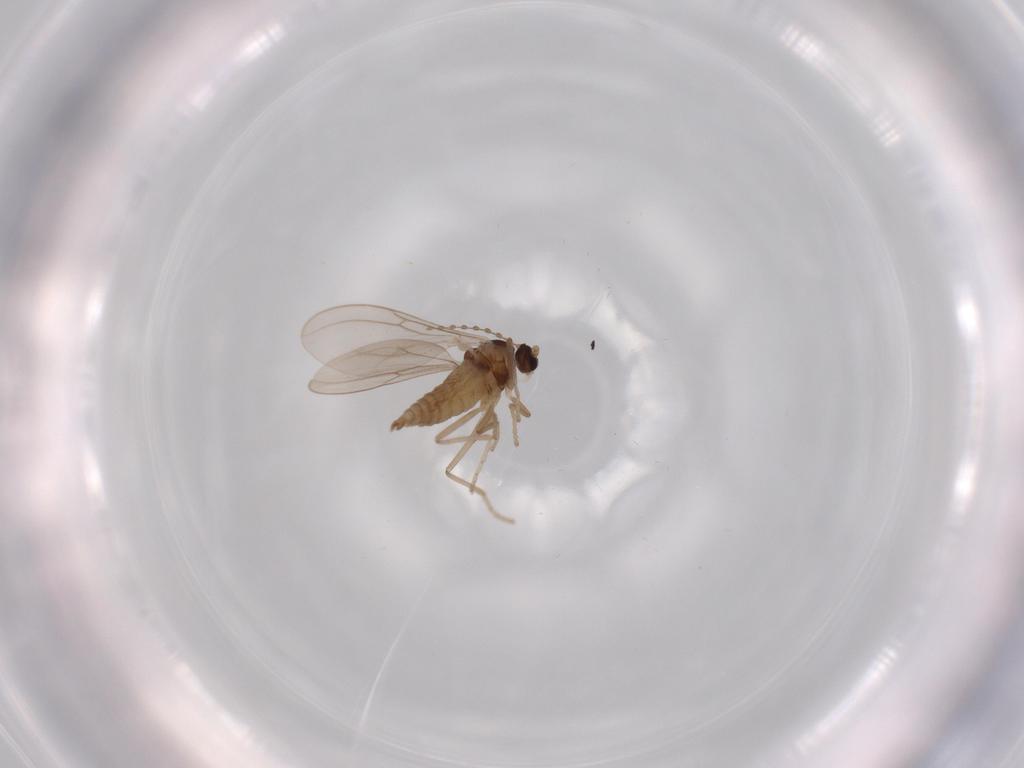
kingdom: Animalia
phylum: Arthropoda
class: Insecta
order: Diptera
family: Cecidomyiidae
